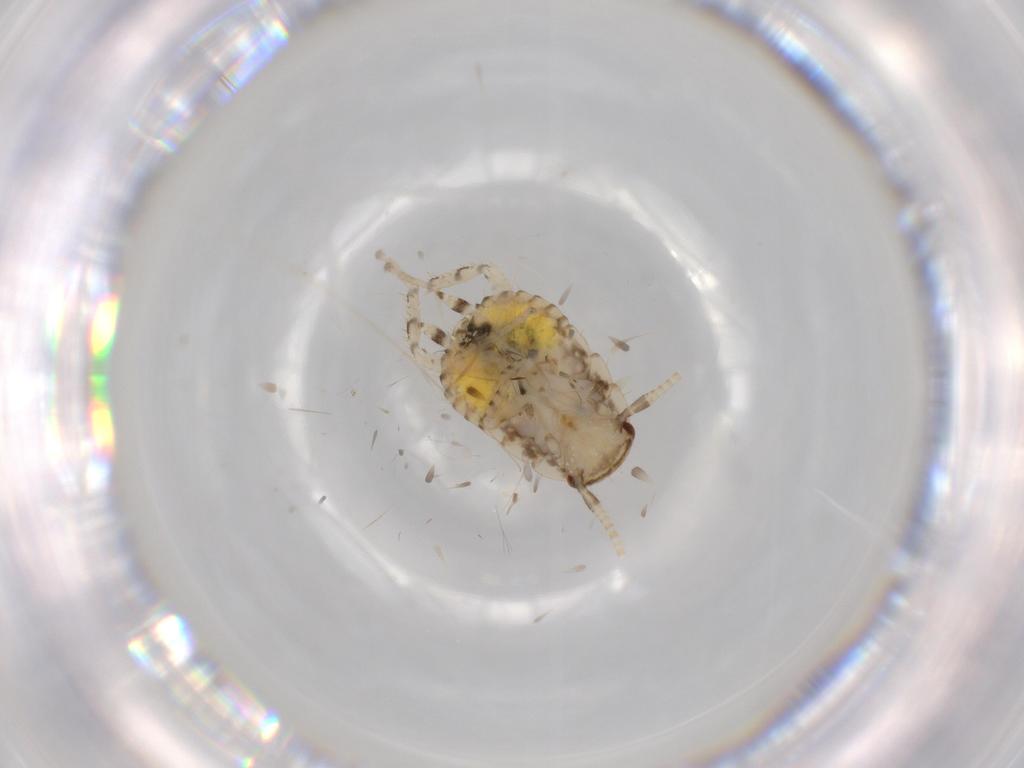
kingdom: Animalia
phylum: Arthropoda
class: Insecta
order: Blattodea
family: Ectobiidae
